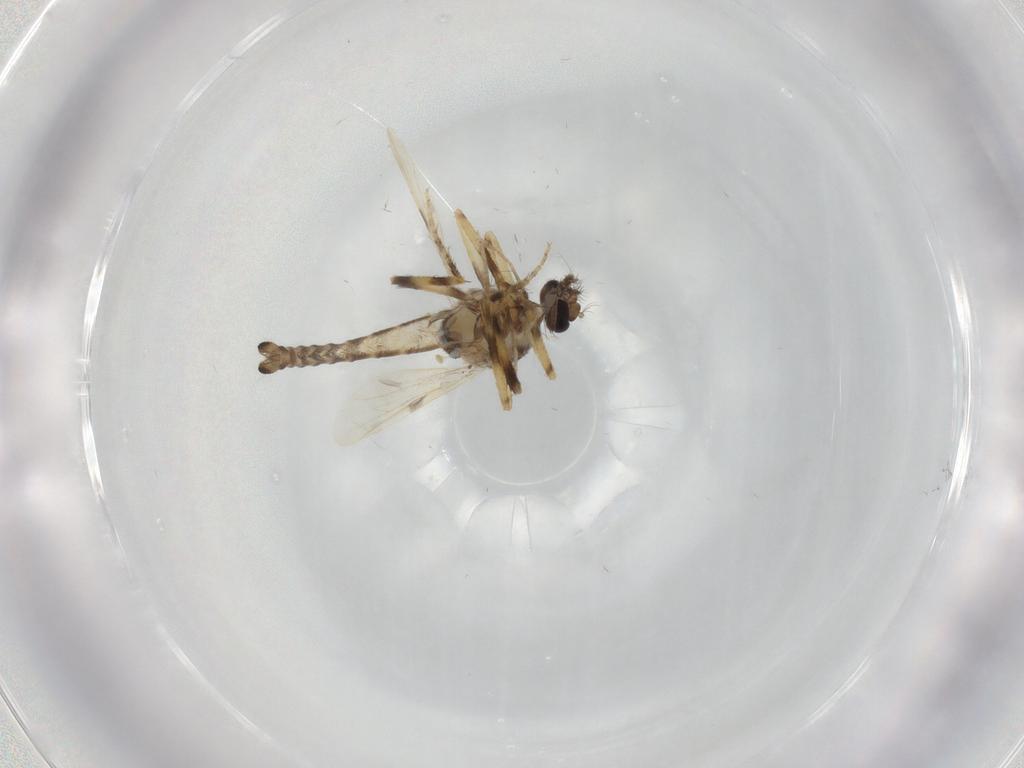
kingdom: Animalia
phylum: Arthropoda
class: Insecta
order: Diptera
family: Ceratopogonidae
